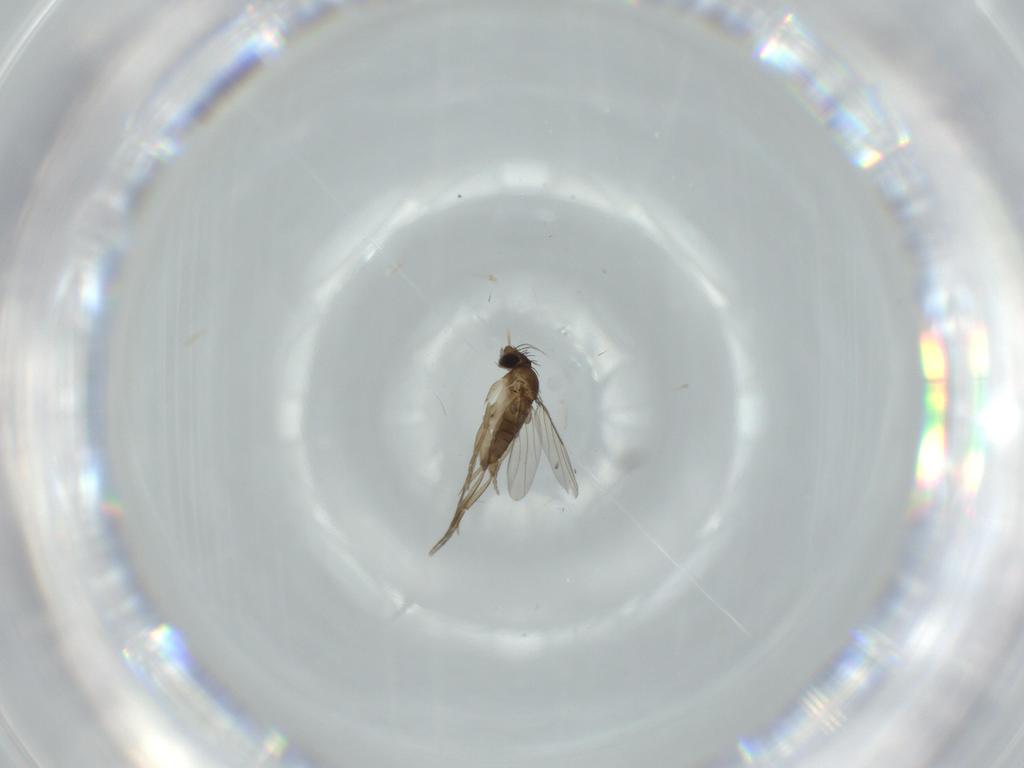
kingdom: Animalia
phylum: Arthropoda
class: Insecta
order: Diptera
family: Phoridae
